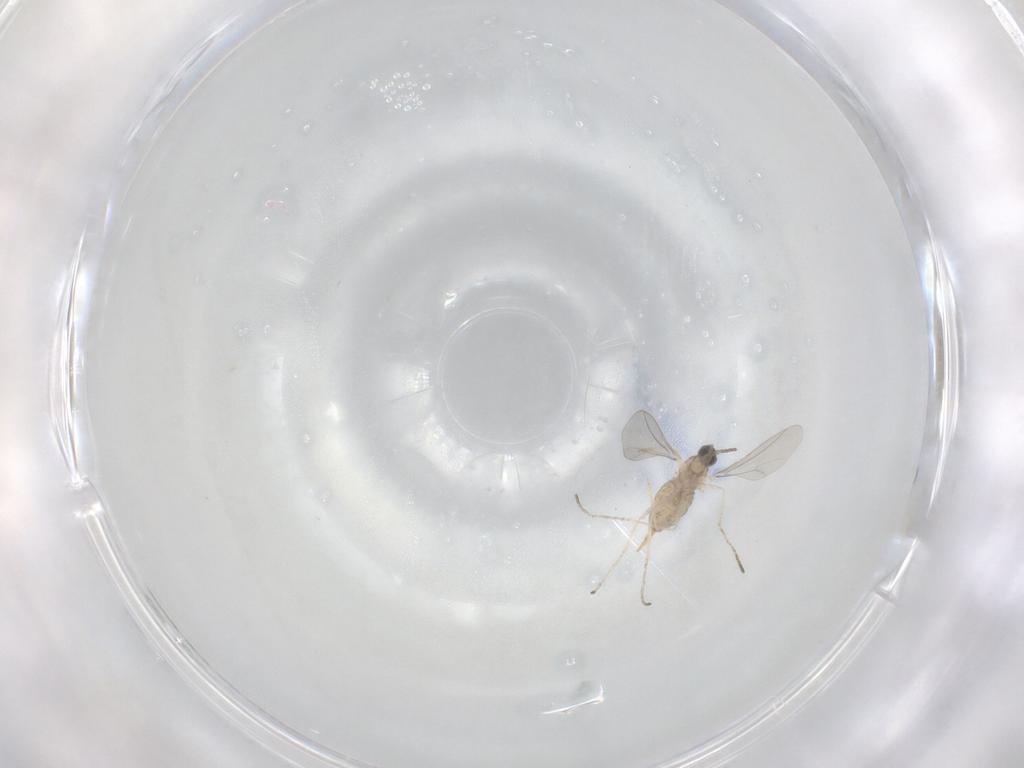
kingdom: Animalia
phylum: Arthropoda
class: Insecta
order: Diptera
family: Cecidomyiidae
